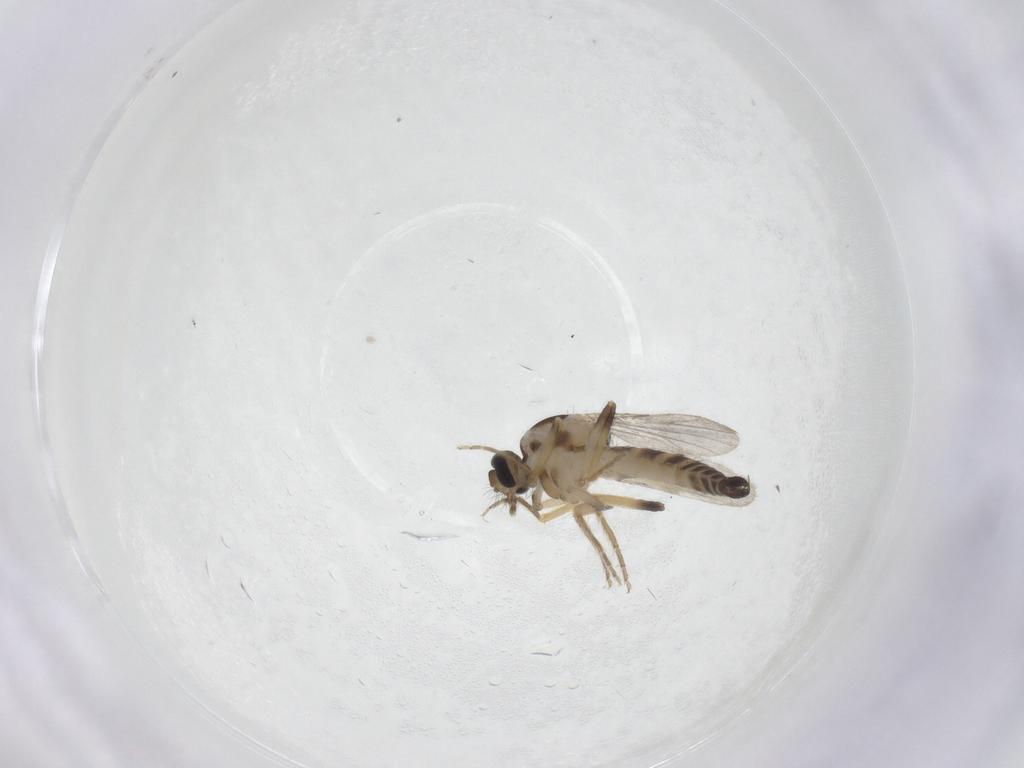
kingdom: Animalia
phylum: Arthropoda
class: Insecta
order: Diptera
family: Ceratopogonidae
